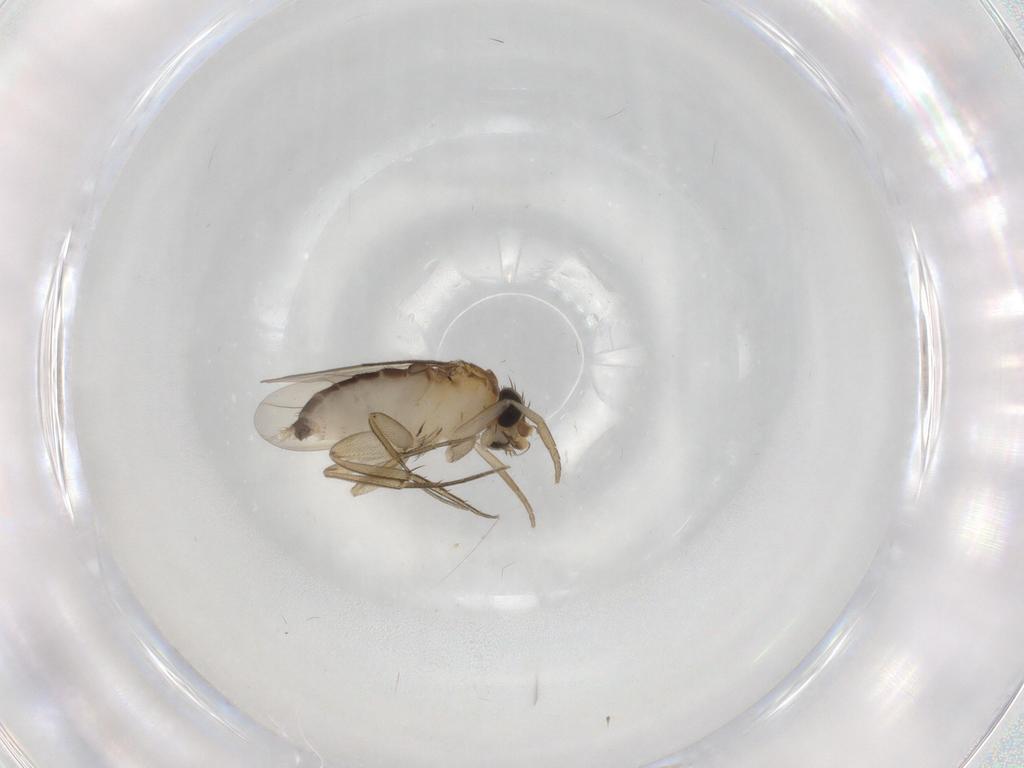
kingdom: Animalia
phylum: Arthropoda
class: Insecta
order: Diptera
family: Phoridae
